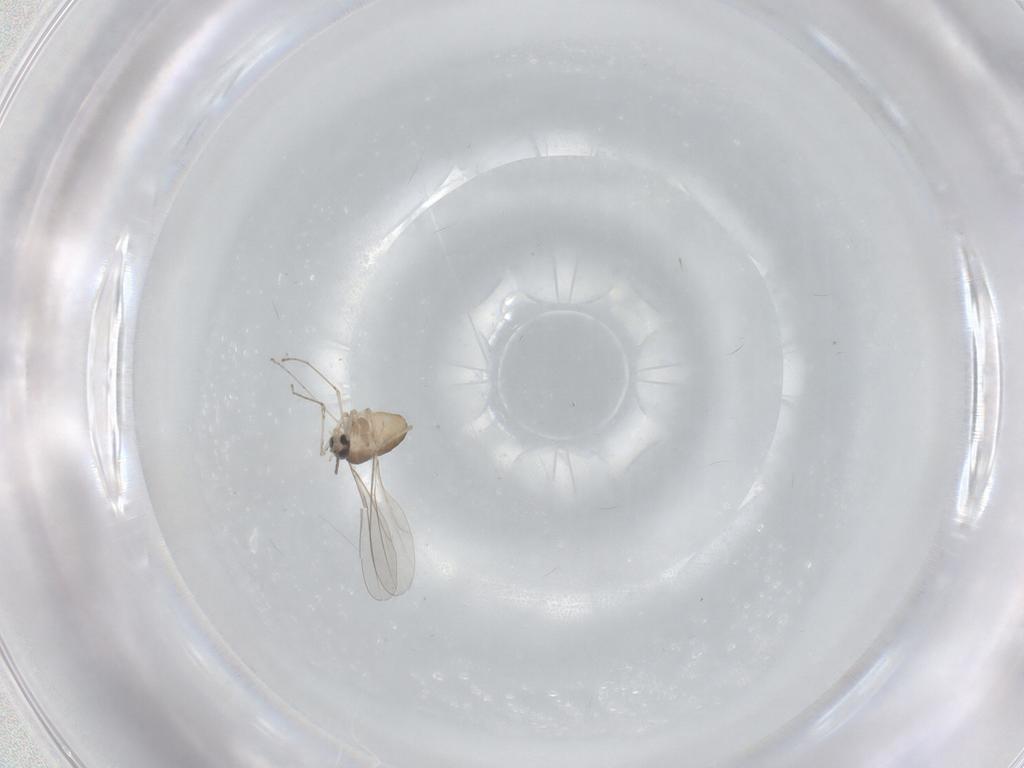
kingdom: Animalia
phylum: Arthropoda
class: Insecta
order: Diptera
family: Cecidomyiidae
